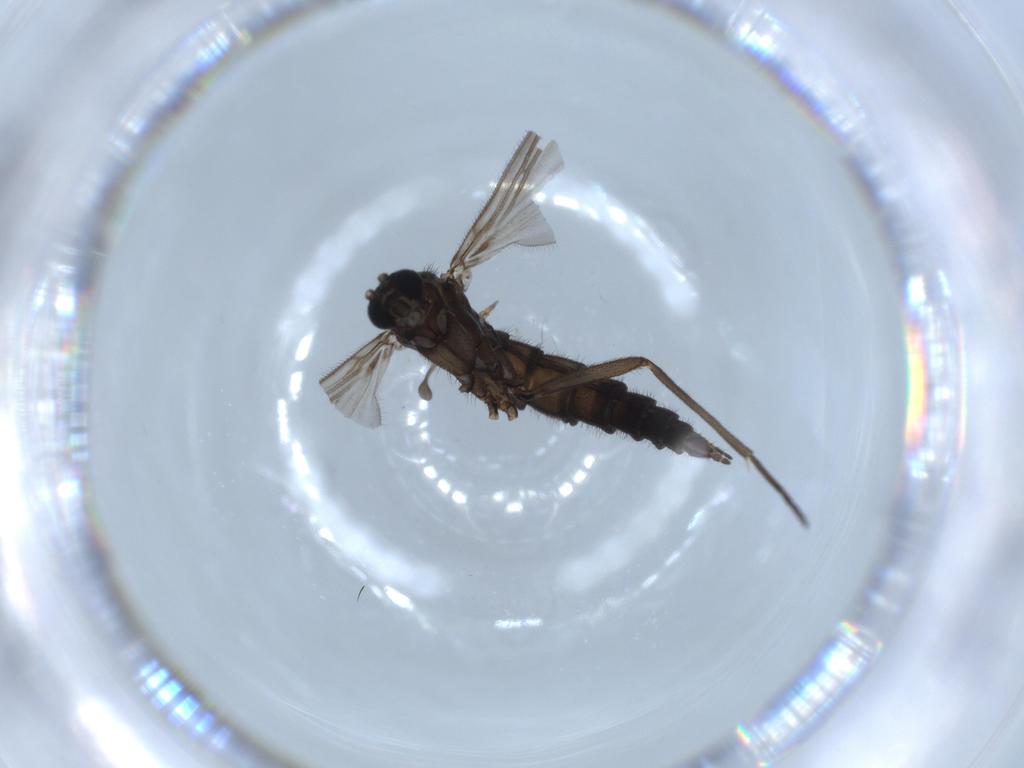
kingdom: Animalia
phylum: Arthropoda
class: Insecta
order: Diptera
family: Sciaridae
